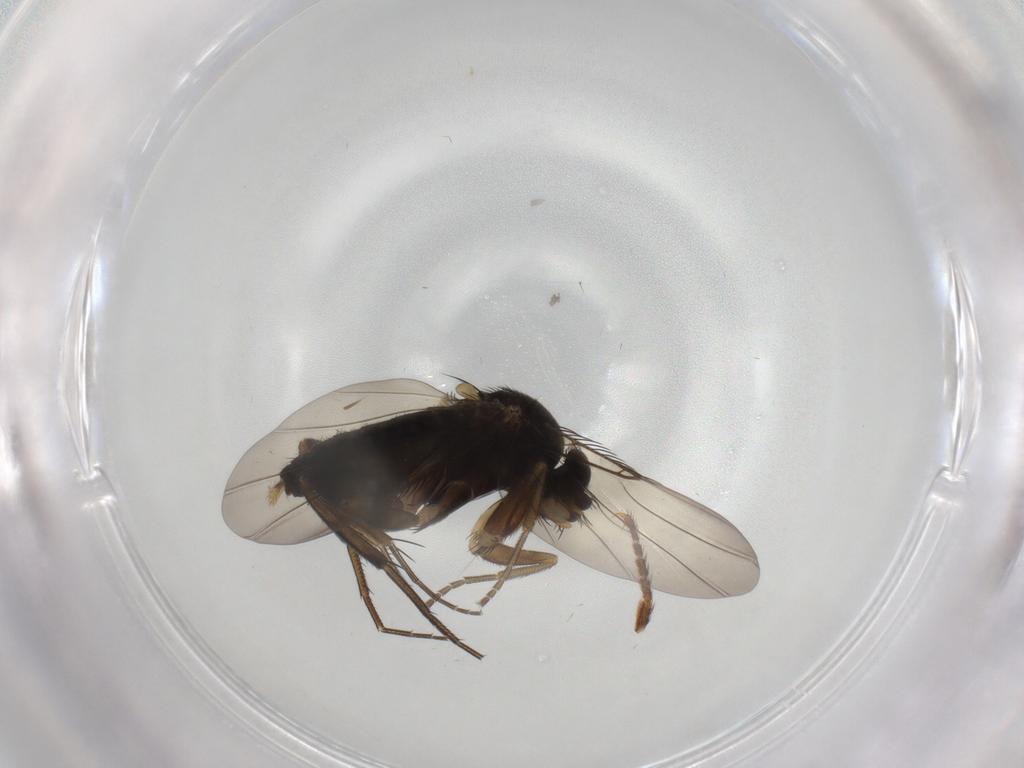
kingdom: Animalia
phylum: Arthropoda
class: Insecta
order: Diptera
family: Phoridae
